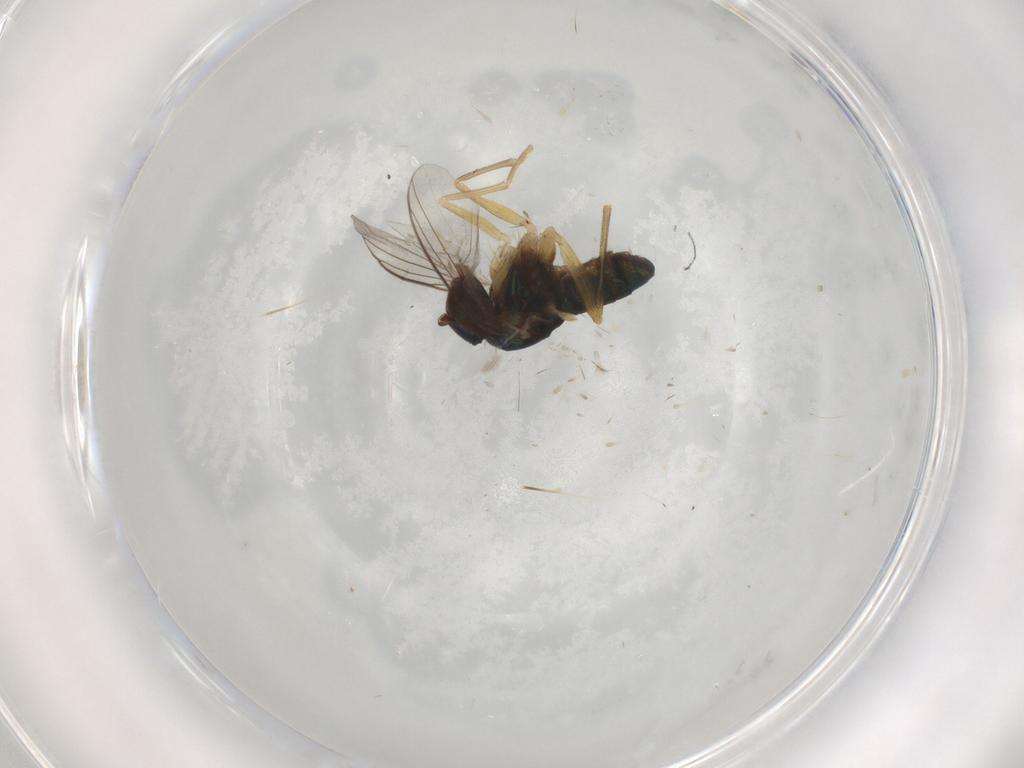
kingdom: Animalia
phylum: Arthropoda
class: Insecta
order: Diptera
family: Dolichopodidae
